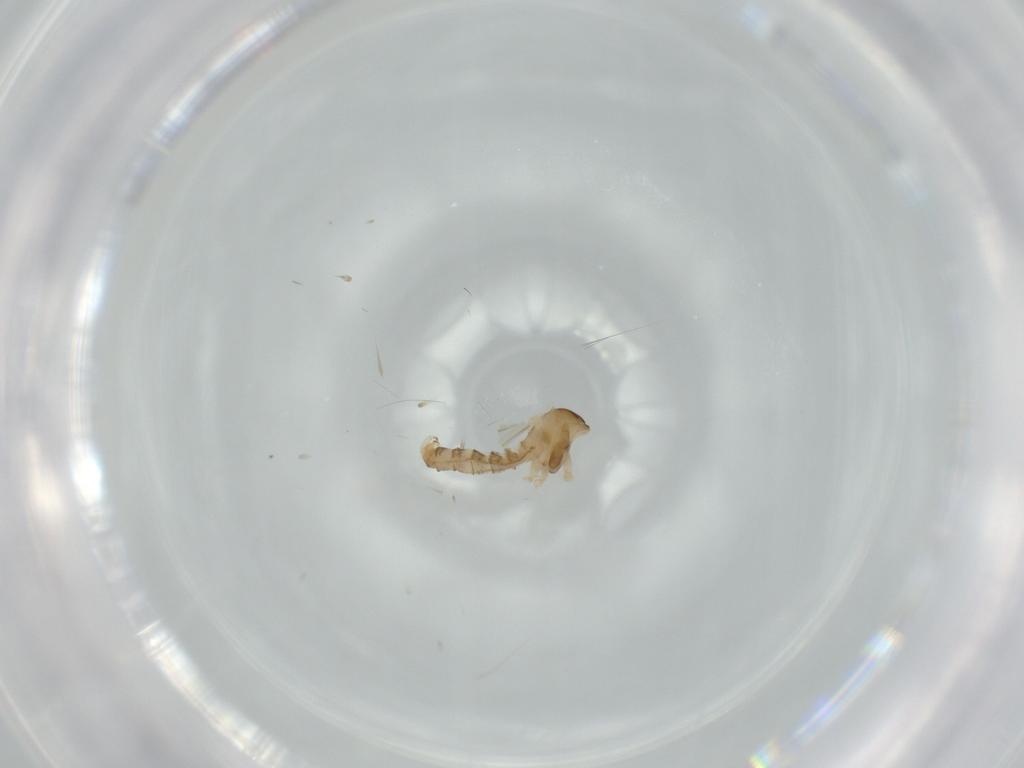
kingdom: Animalia
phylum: Arthropoda
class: Insecta
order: Diptera
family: Cecidomyiidae
